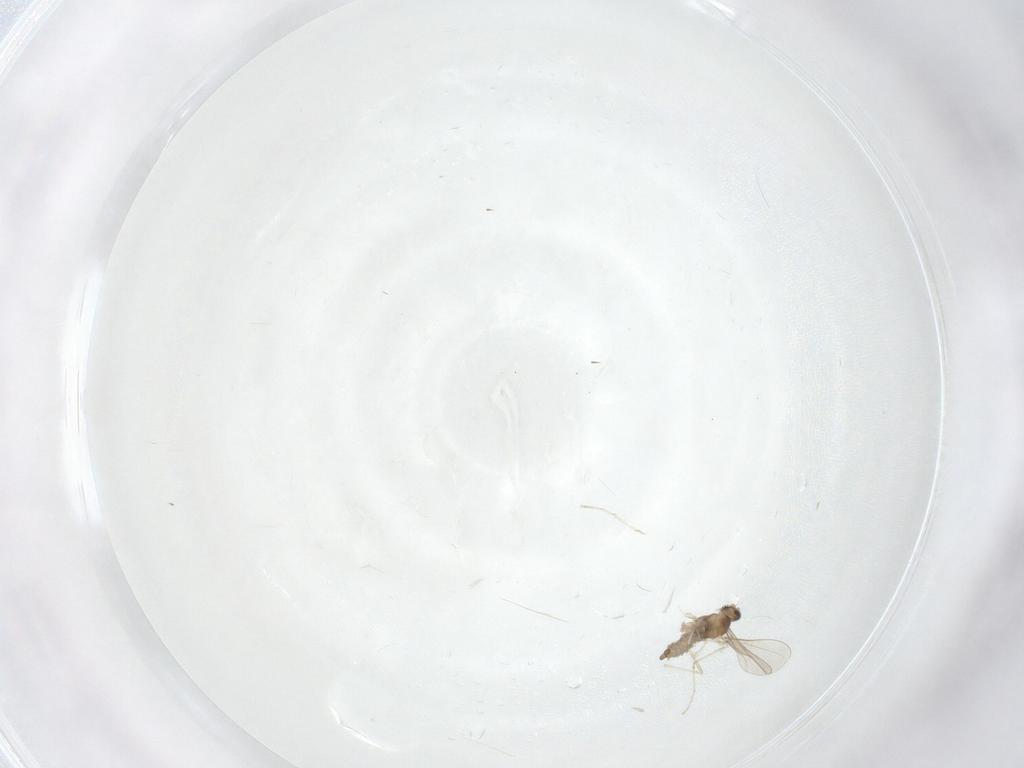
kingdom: Animalia
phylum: Arthropoda
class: Insecta
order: Diptera
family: Cecidomyiidae
